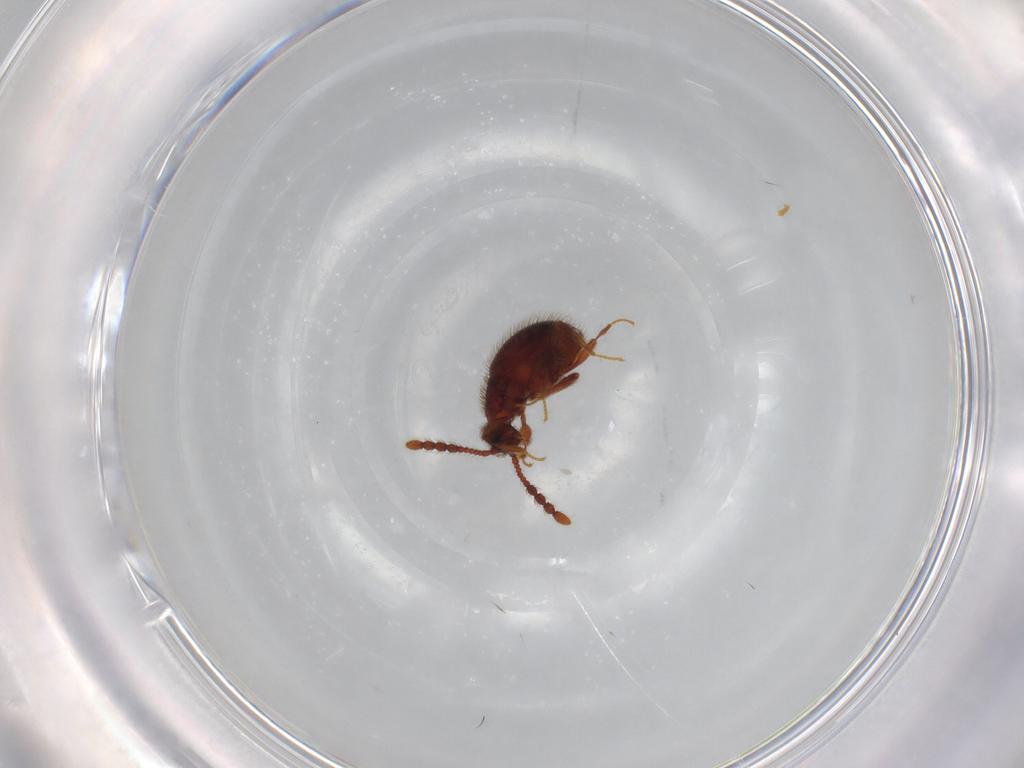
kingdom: Animalia
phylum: Arthropoda
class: Insecta
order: Coleoptera
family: Staphylinidae
